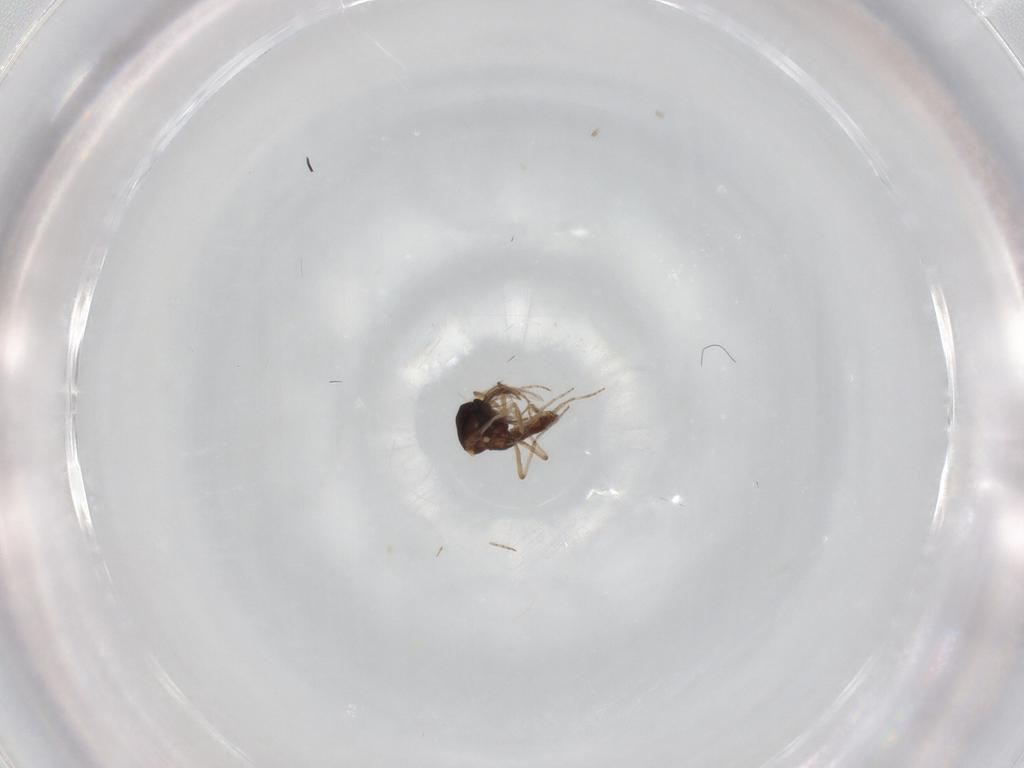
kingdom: Animalia
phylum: Arthropoda
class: Insecta
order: Diptera
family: Ceratopogonidae
